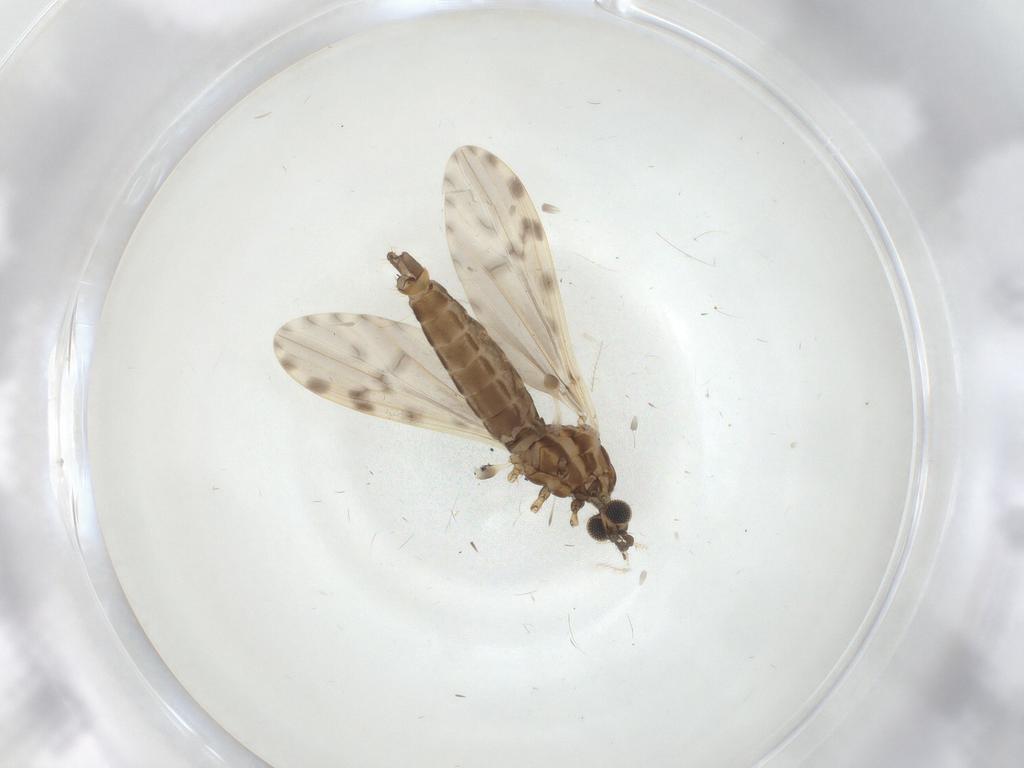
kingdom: Animalia
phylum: Arthropoda
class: Insecta
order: Diptera
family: Limoniidae
